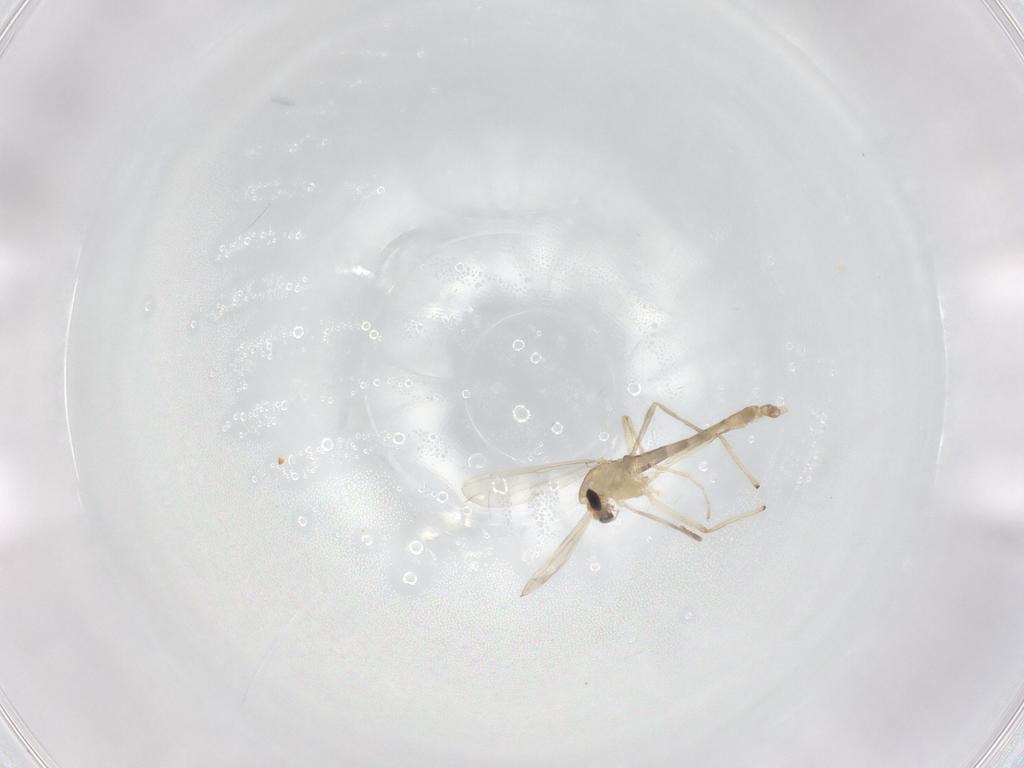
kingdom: Animalia
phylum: Arthropoda
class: Insecta
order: Diptera
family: Chironomidae
